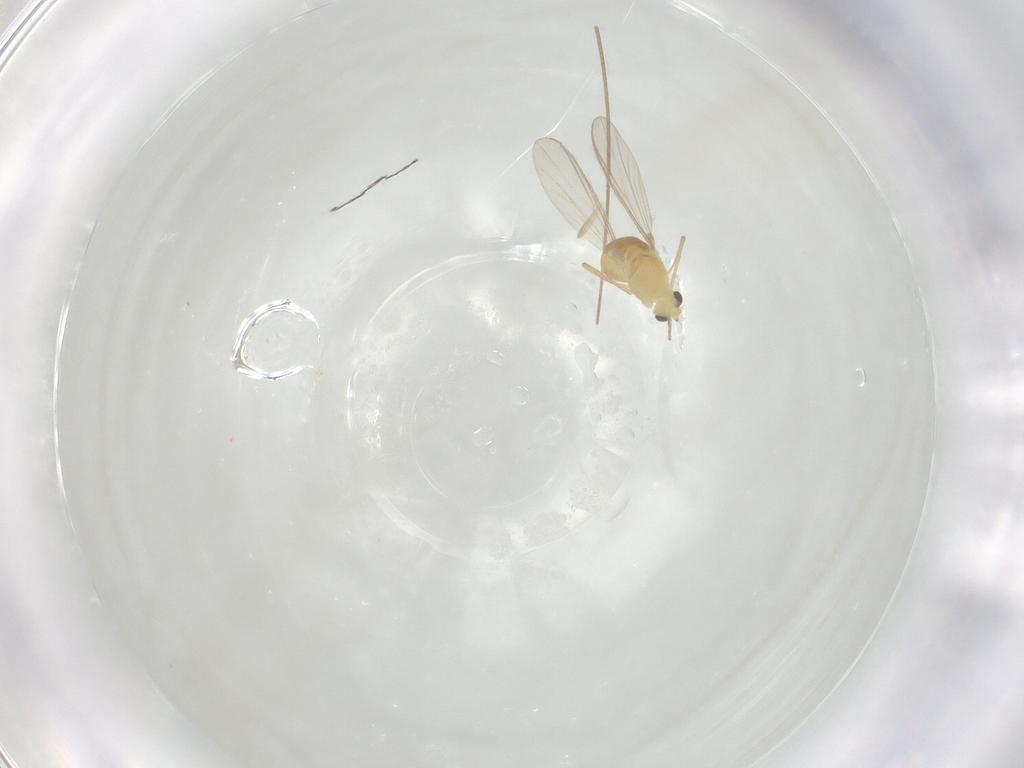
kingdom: Animalia
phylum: Arthropoda
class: Insecta
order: Diptera
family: Chironomidae
